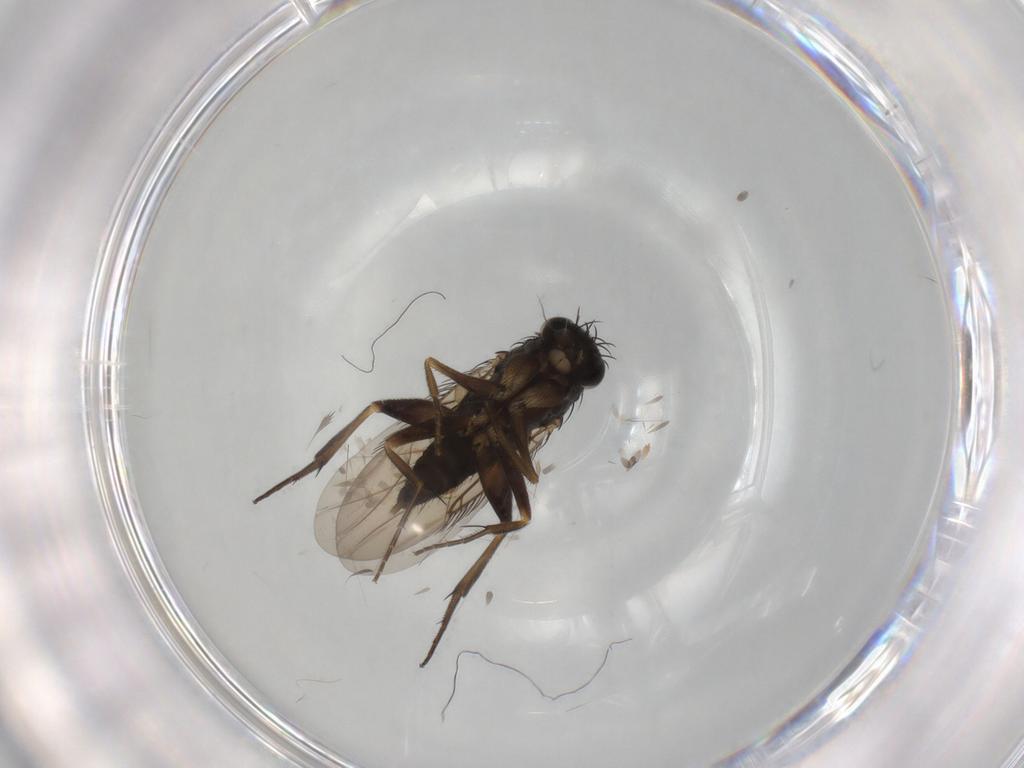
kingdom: Animalia
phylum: Arthropoda
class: Insecta
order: Diptera
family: Phoridae
